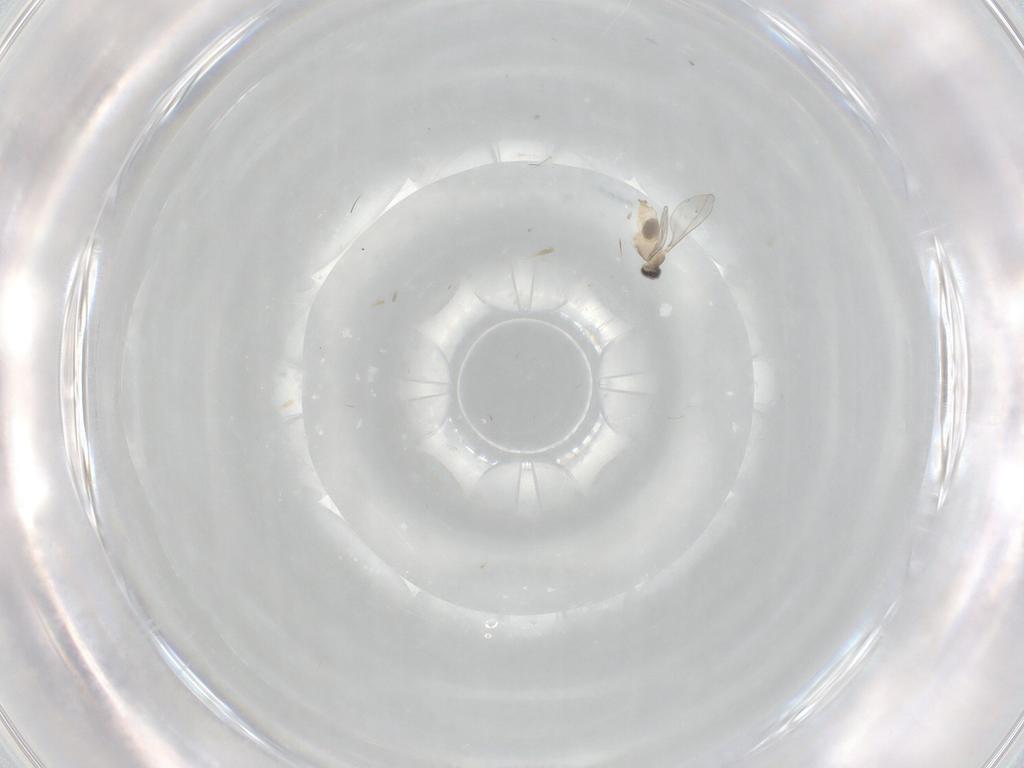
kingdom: Animalia
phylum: Arthropoda
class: Insecta
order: Diptera
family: Cecidomyiidae
